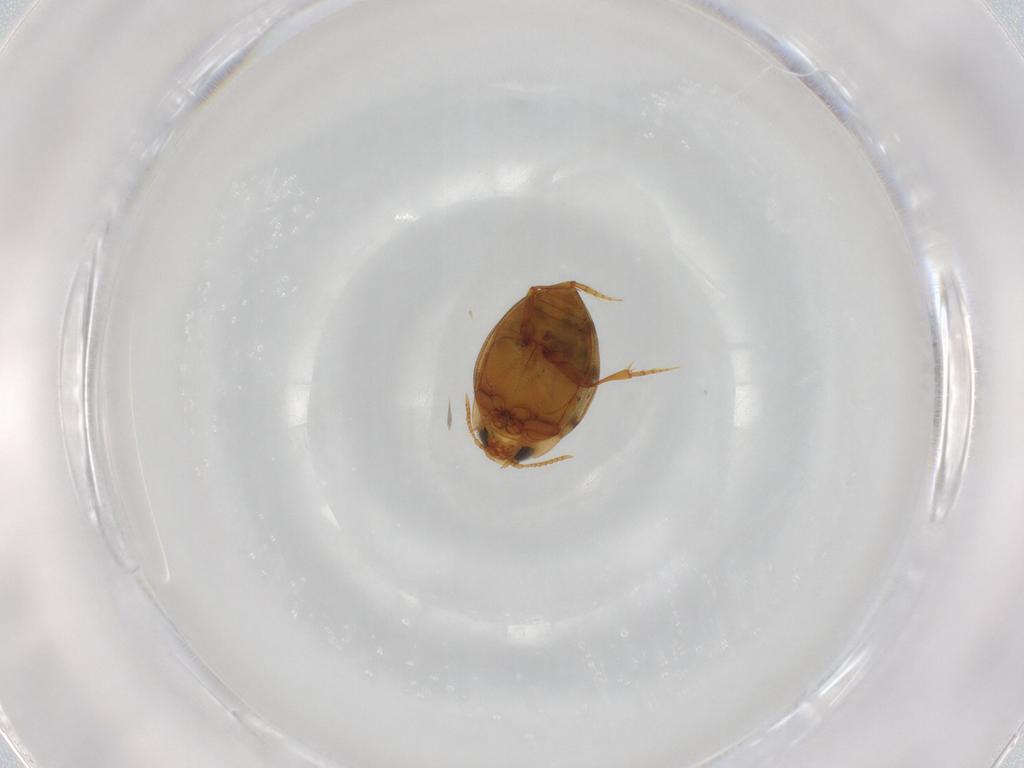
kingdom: Animalia
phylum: Arthropoda
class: Insecta
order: Coleoptera
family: Dytiscidae
